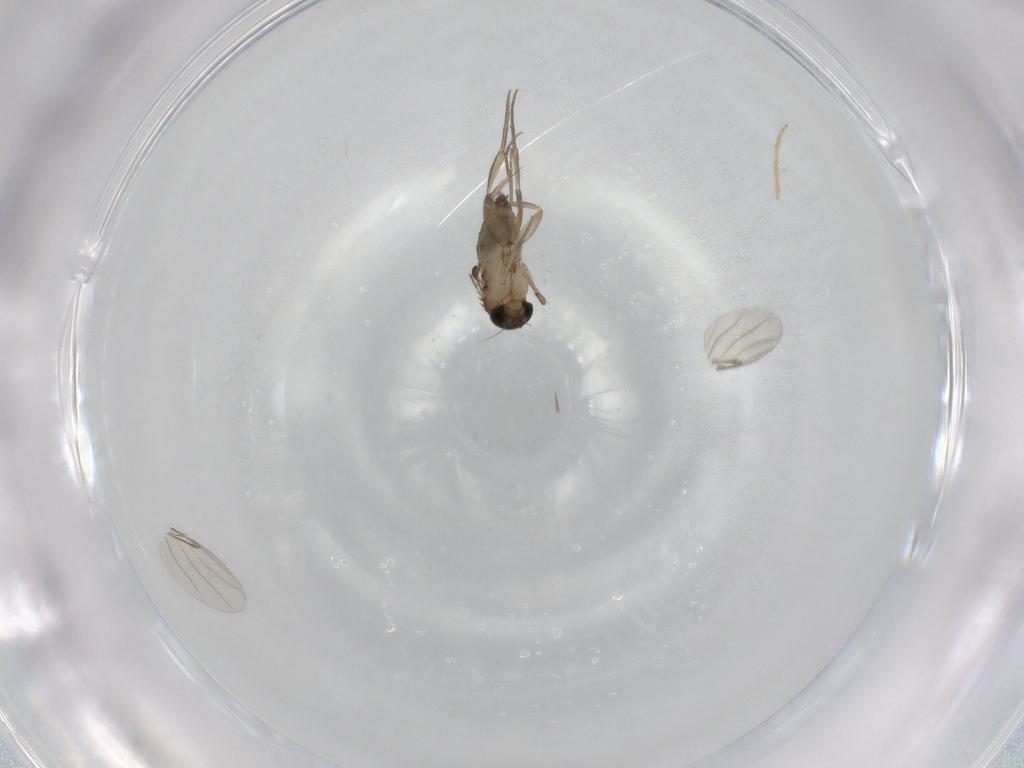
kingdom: Animalia
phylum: Arthropoda
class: Insecta
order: Diptera
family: Phoridae
